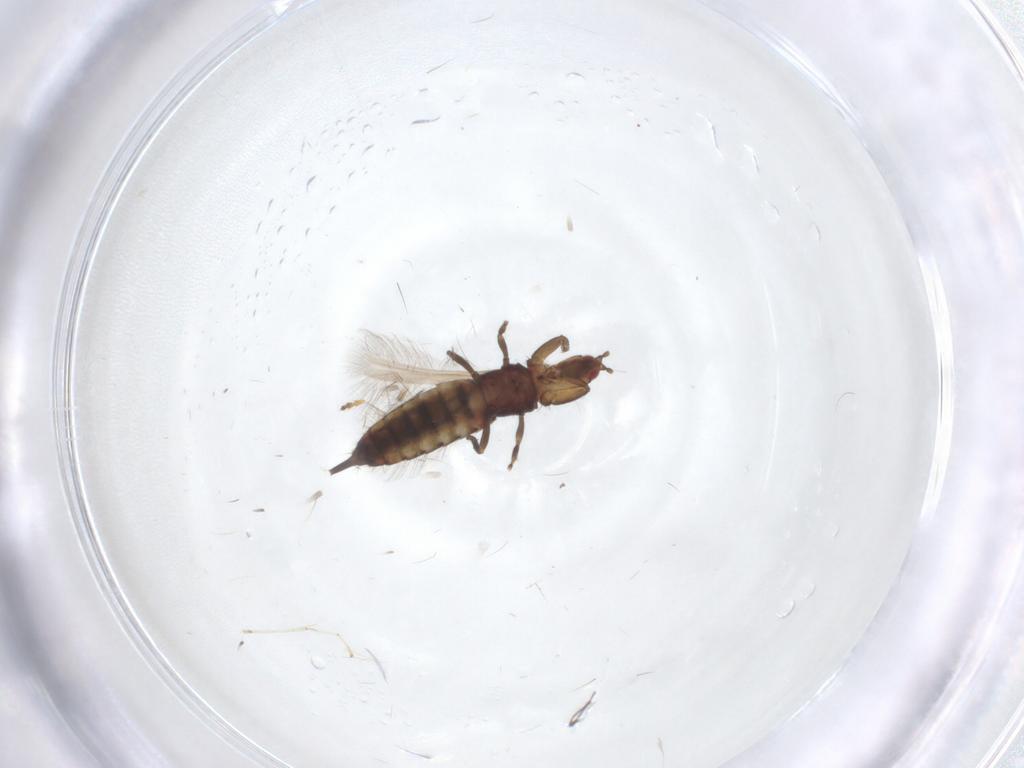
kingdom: Animalia
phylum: Arthropoda
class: Insecta
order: Thysanoptera
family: Phlaeothripidae
